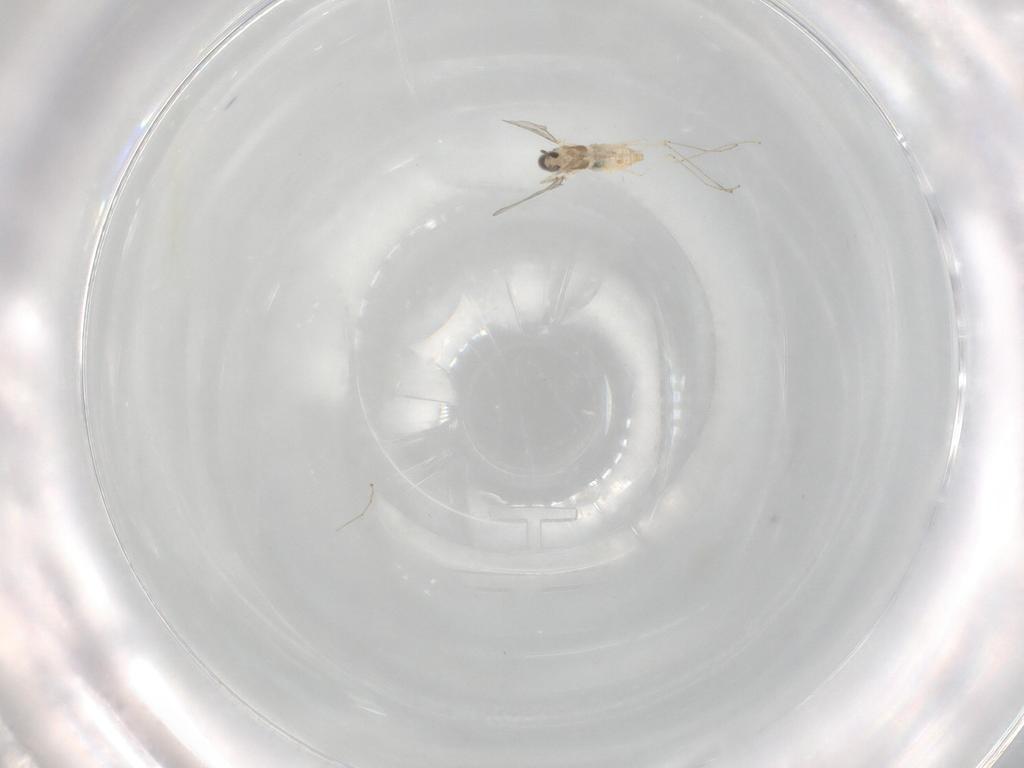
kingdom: Animalia
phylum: Arthropoda
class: Insecta
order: Diptera
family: Cecidomyiidae
